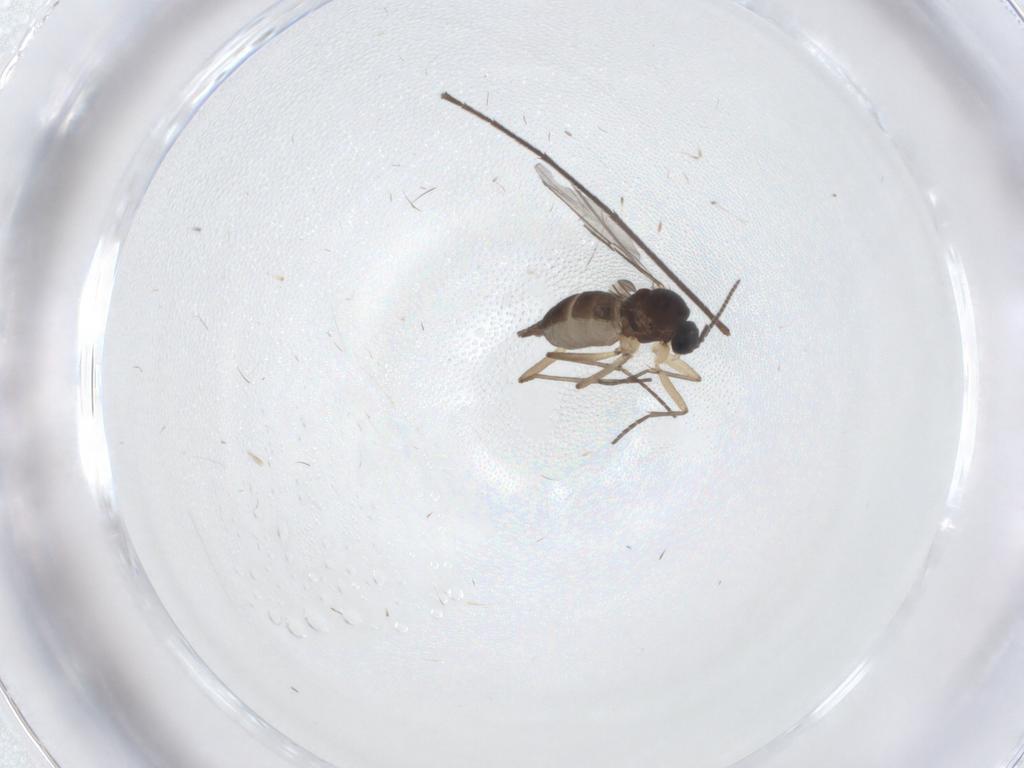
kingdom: Animalia
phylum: Arthropoda
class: Insecta
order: Diptera
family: Sciaridae
